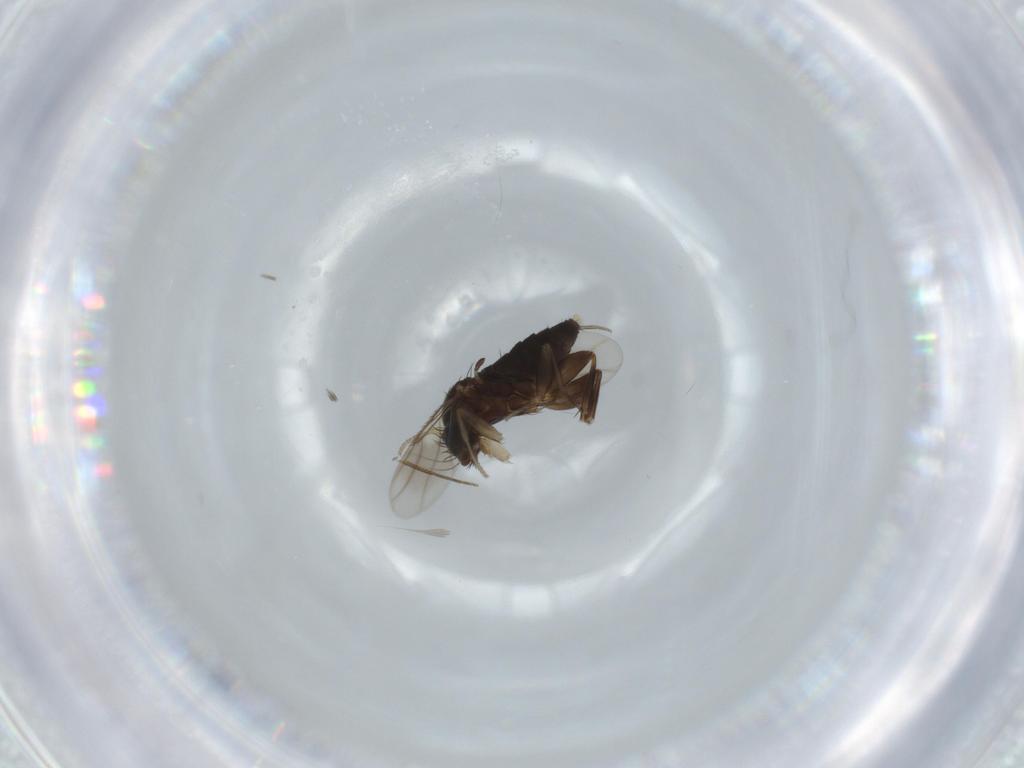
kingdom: Animalia
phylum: Arthropoda
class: Insecta
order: Diptera
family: Phoridae
